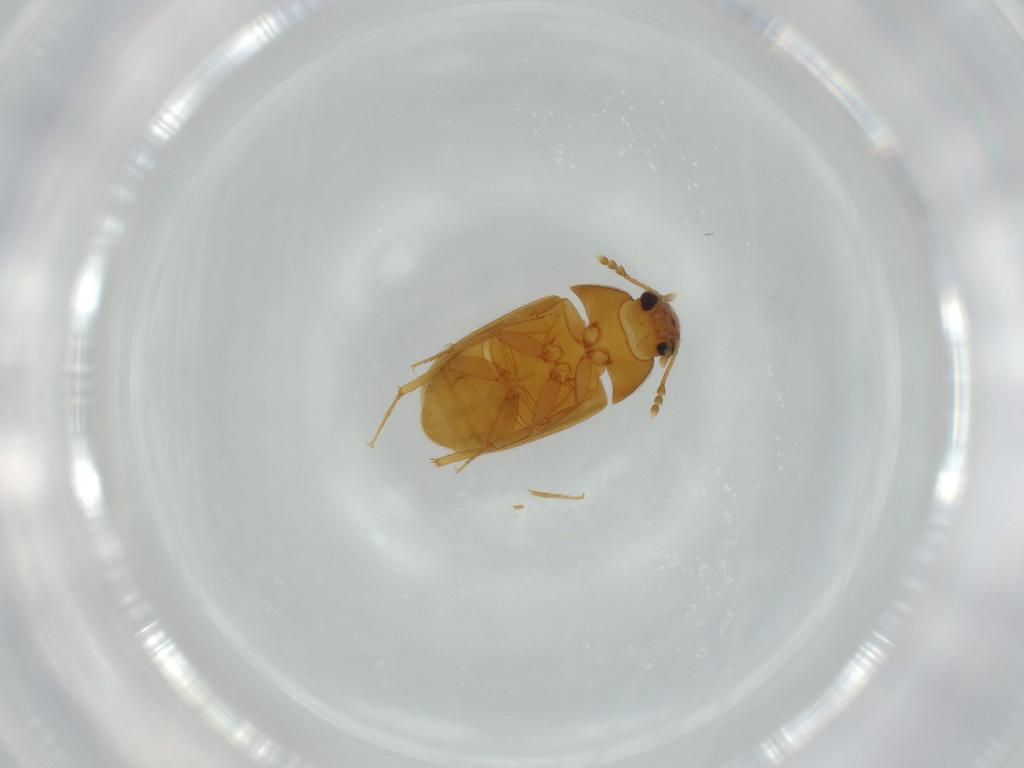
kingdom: Animalia
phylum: Arthropoda
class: Insecta
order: Coleoptera
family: Mycetophagidae
